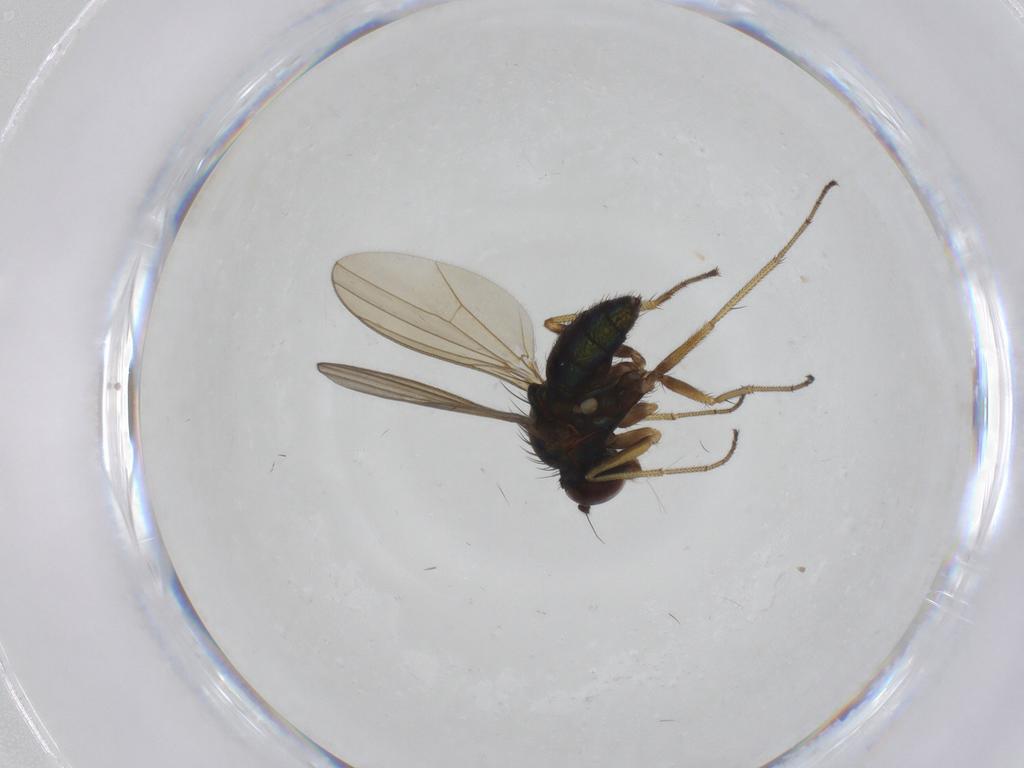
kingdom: Animalia
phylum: Arthropoda
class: Insecta
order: Diptera
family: Dolichopodidae
